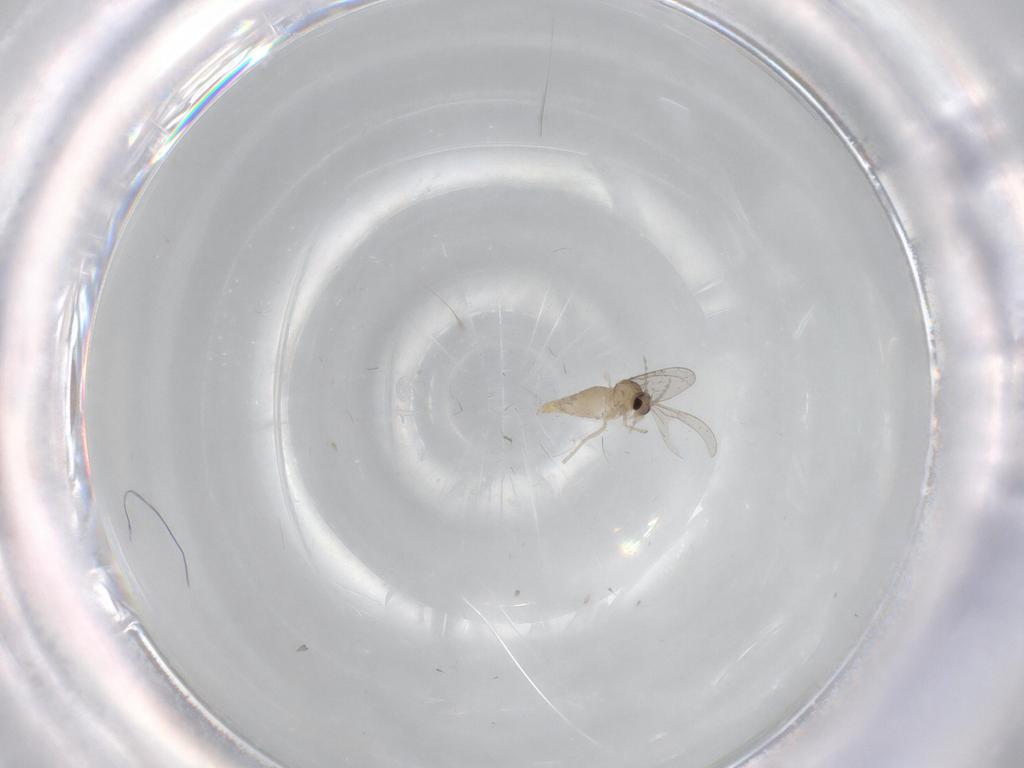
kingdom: Animalia
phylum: Arthropoda
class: Insecta
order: Diptera
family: Cecidomyiidae
